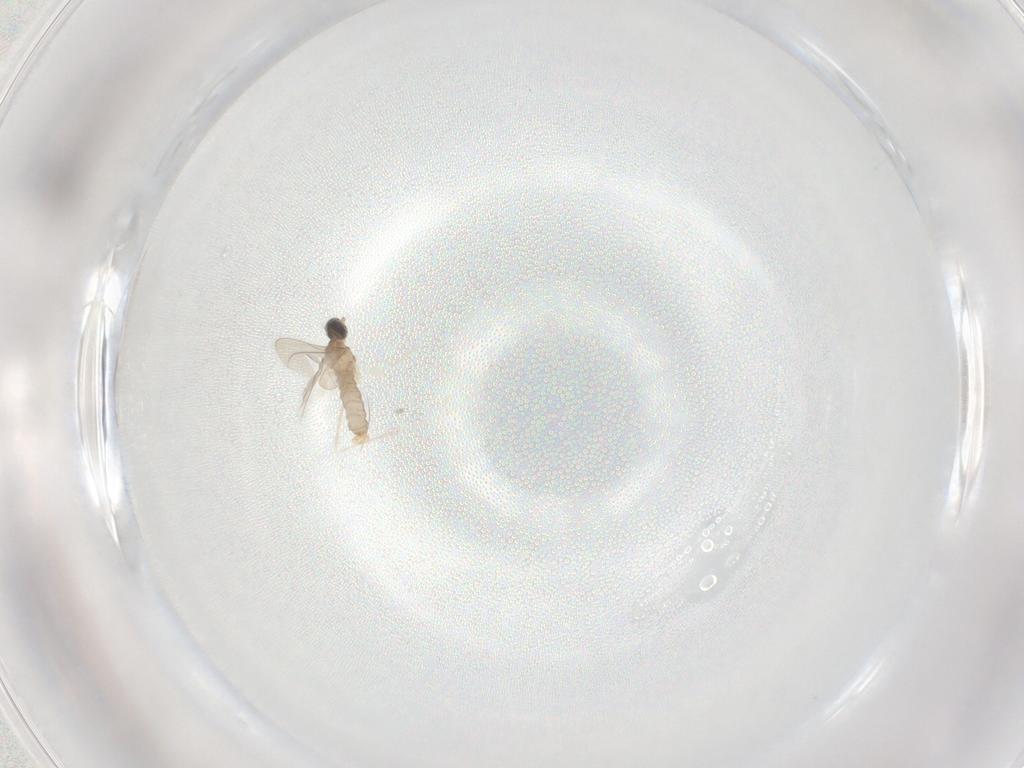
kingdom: Animalia
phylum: Arthropoda
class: Insecta
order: Diptera
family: Cecidomyiidae
